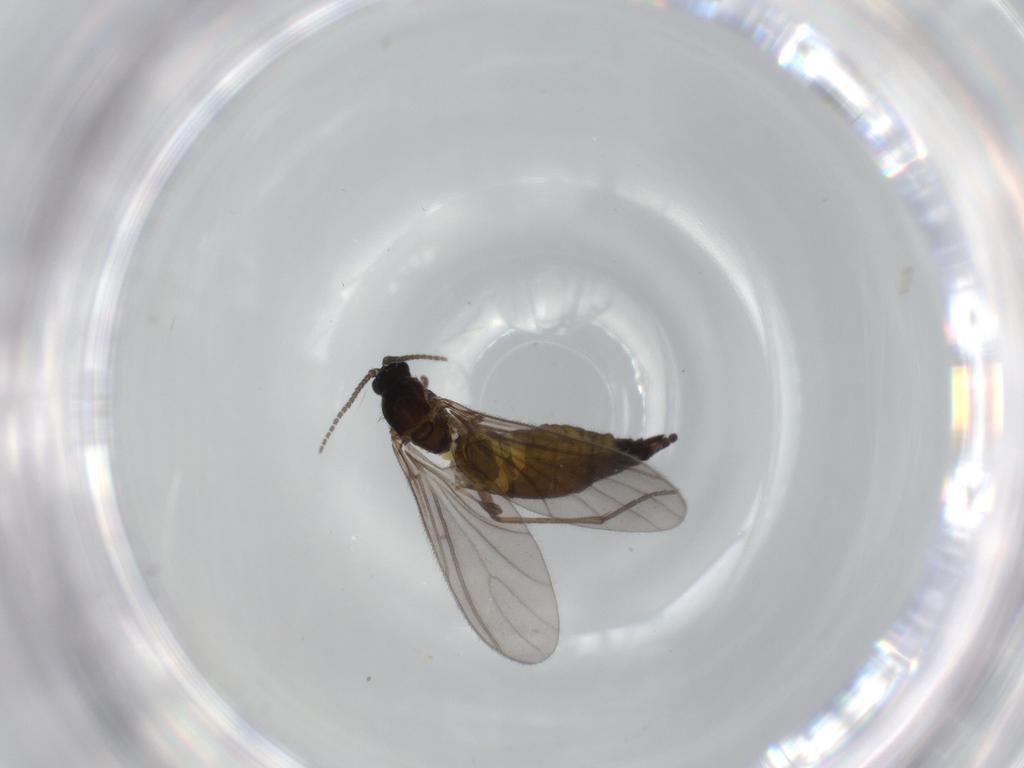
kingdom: Animalia
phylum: Arthropoda
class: Insecta
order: Diptera
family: Sciaridae
